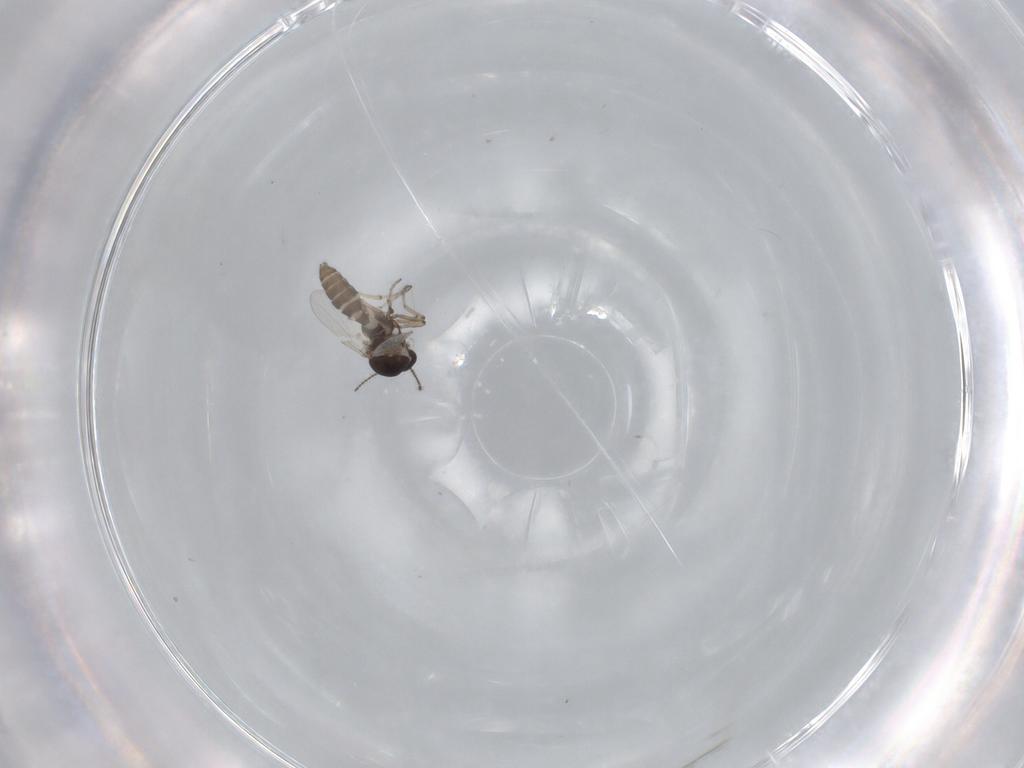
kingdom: Animalia
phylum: Arthropoda
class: Insecta
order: Diptera
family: Ceratopogonidae
